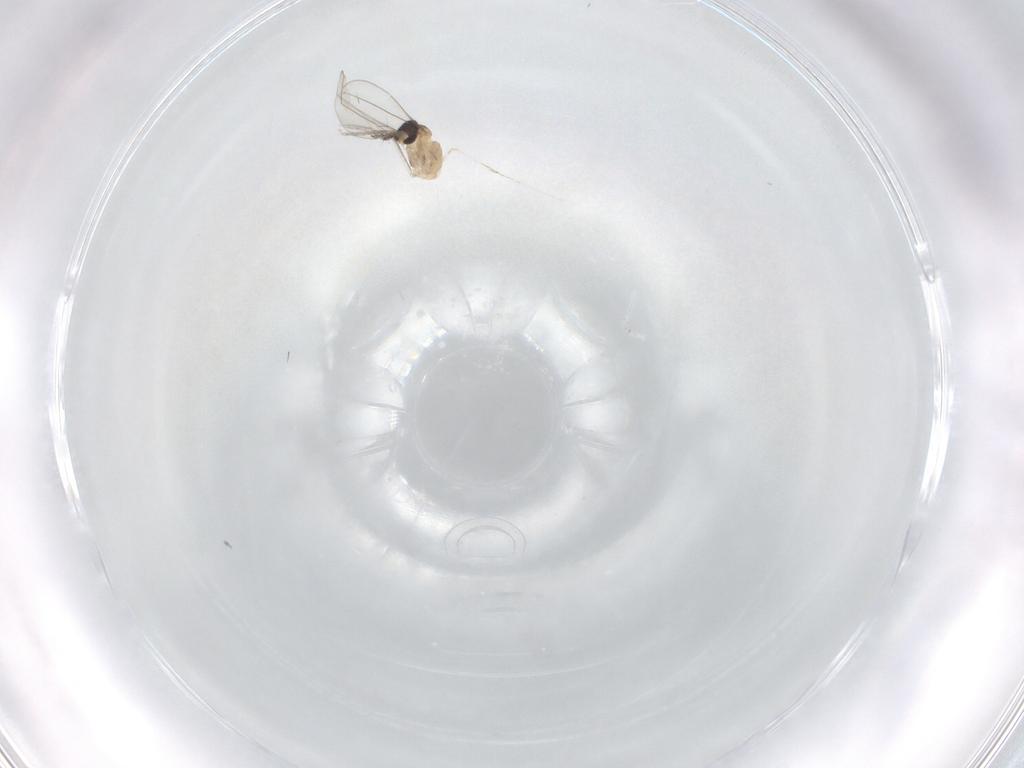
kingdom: Animalia
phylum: Arthropoda
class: Insecta
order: Diptera
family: Cecidomyiidae
